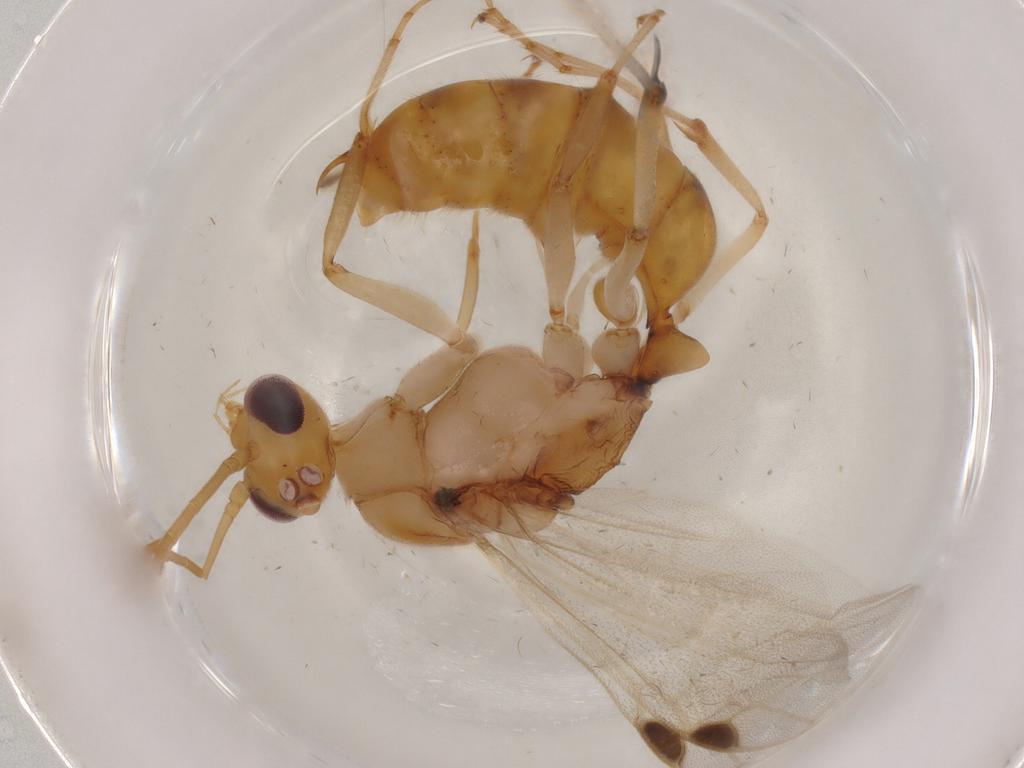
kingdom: Animalia
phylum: Arthropoda
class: Insecta
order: Hymenoptera
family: Formicidae
